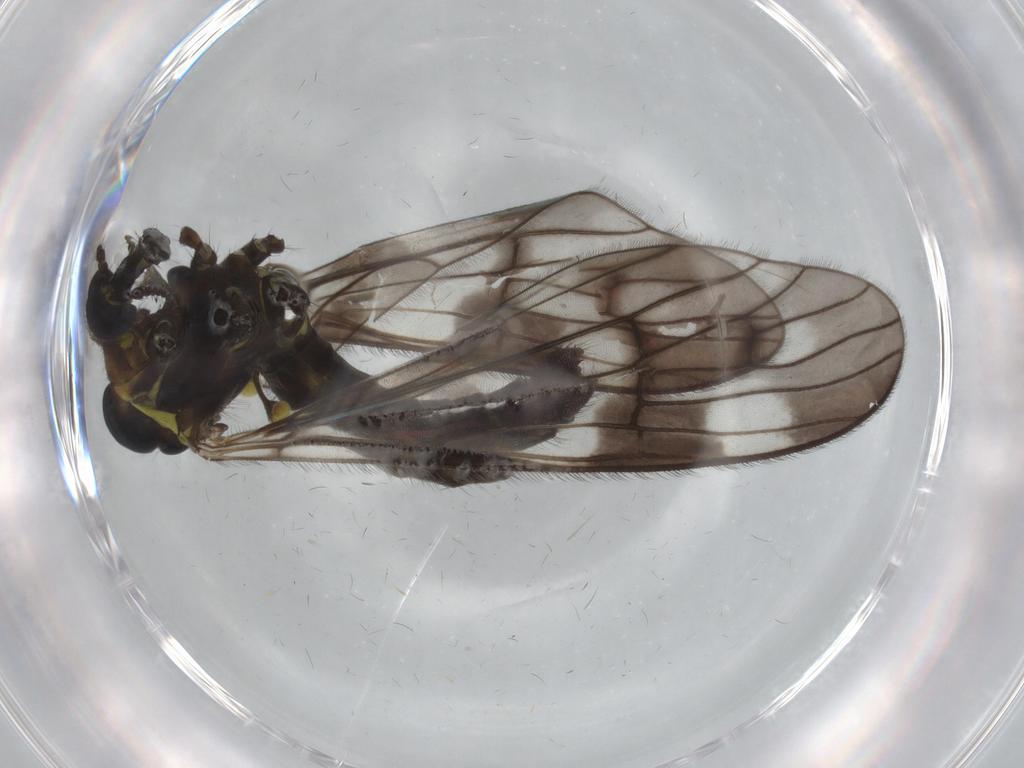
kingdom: Animalia
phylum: Arthropoda
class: Insecta
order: Diptera
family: Limoniidae
